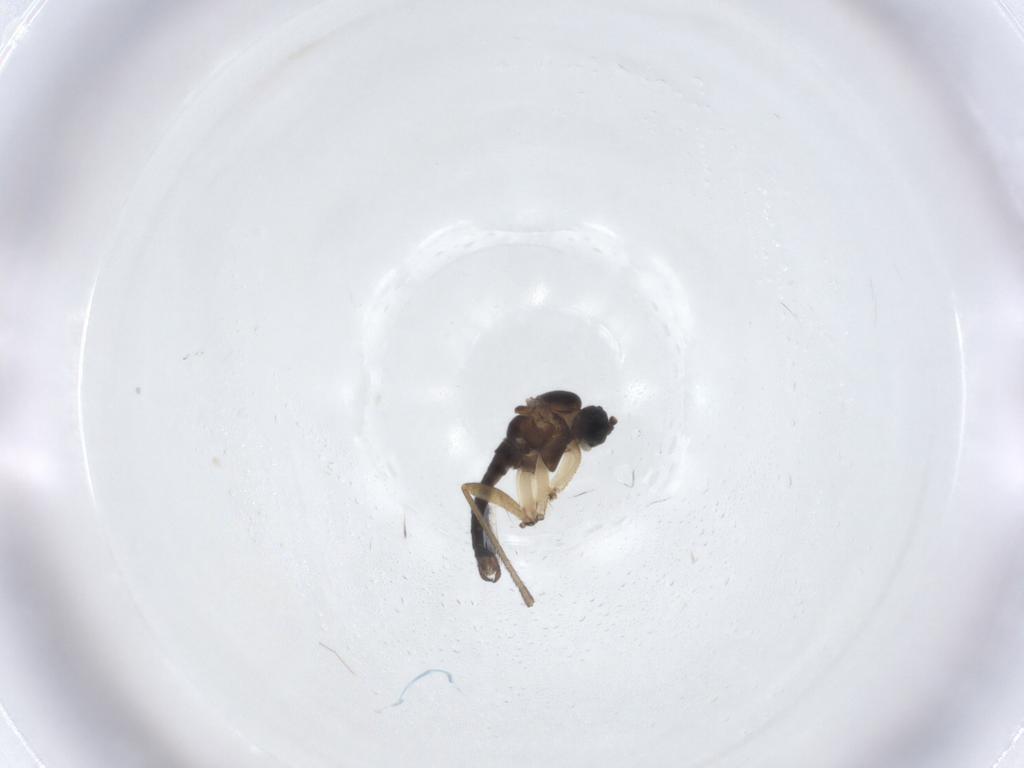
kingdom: Animalia
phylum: Arthropoda
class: Insecta
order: Diptera
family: Sciaridae
